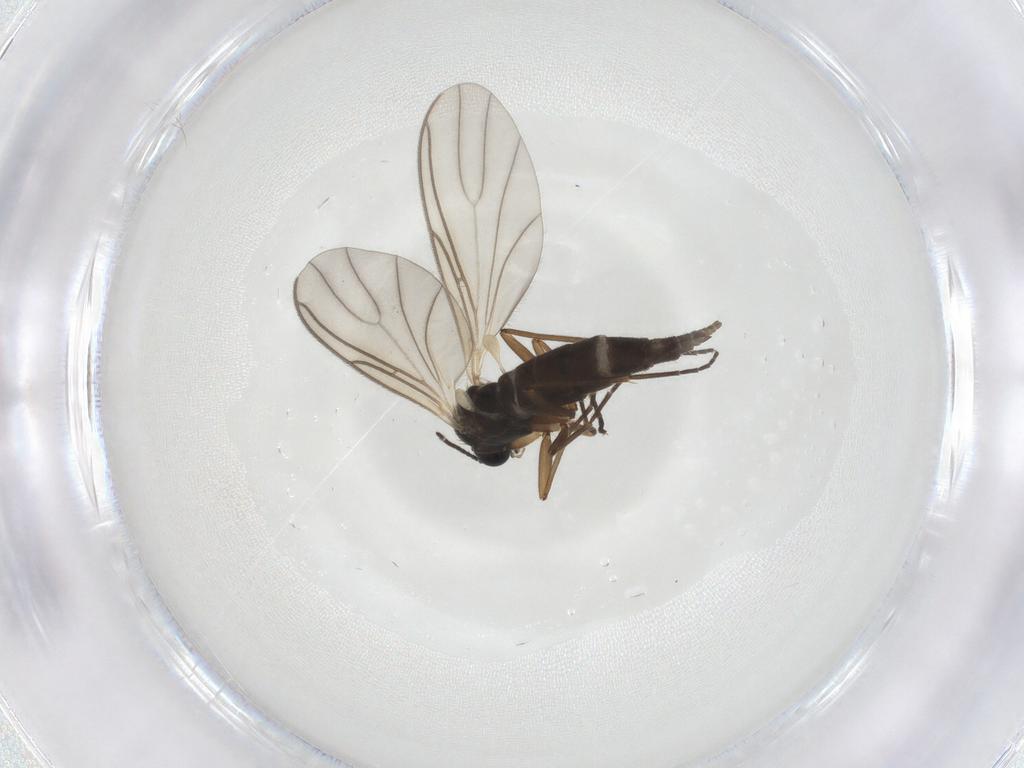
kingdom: Animalia
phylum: Arthropoda
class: Insecta
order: Diptera
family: Sciaridae
